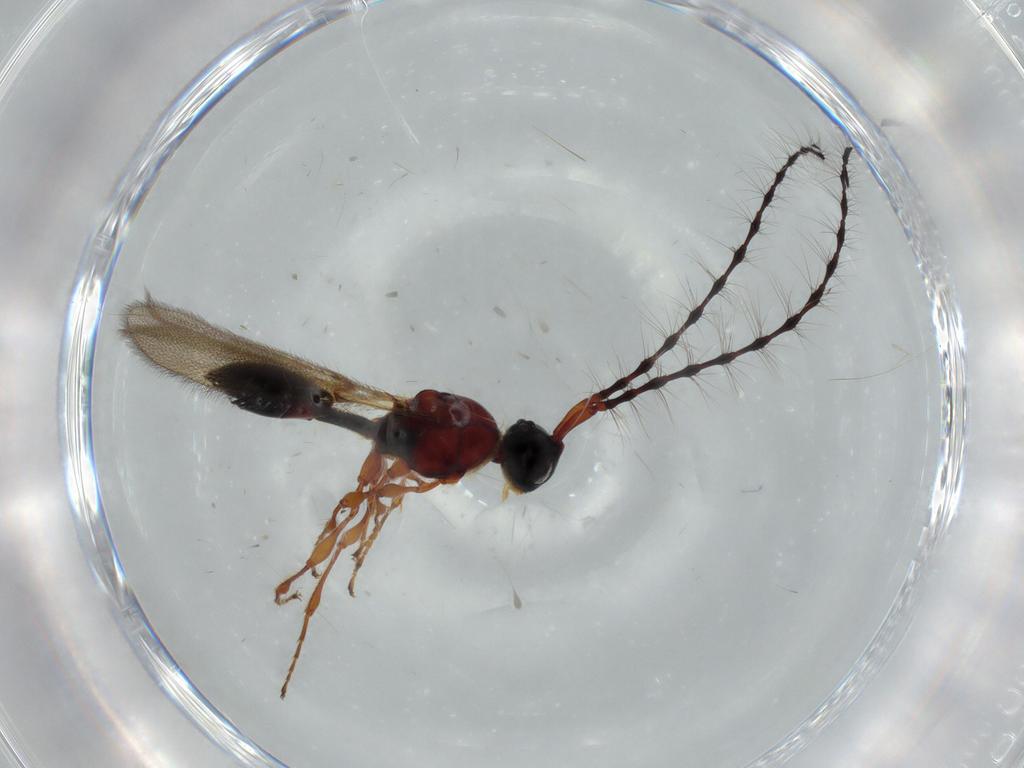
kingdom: Animalia
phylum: Arthropoda
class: Insecta
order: Hymenoptera
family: Diapriidae
